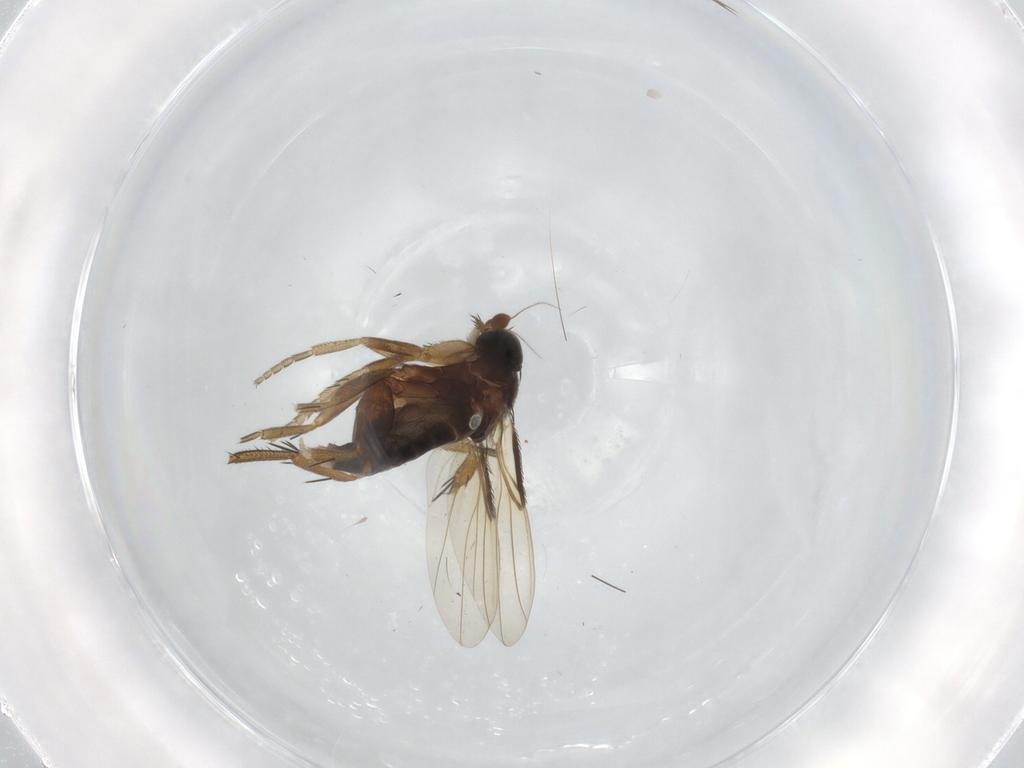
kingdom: Animalia
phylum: Arthropoda
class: Insecta
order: Diptera
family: Phoridae
